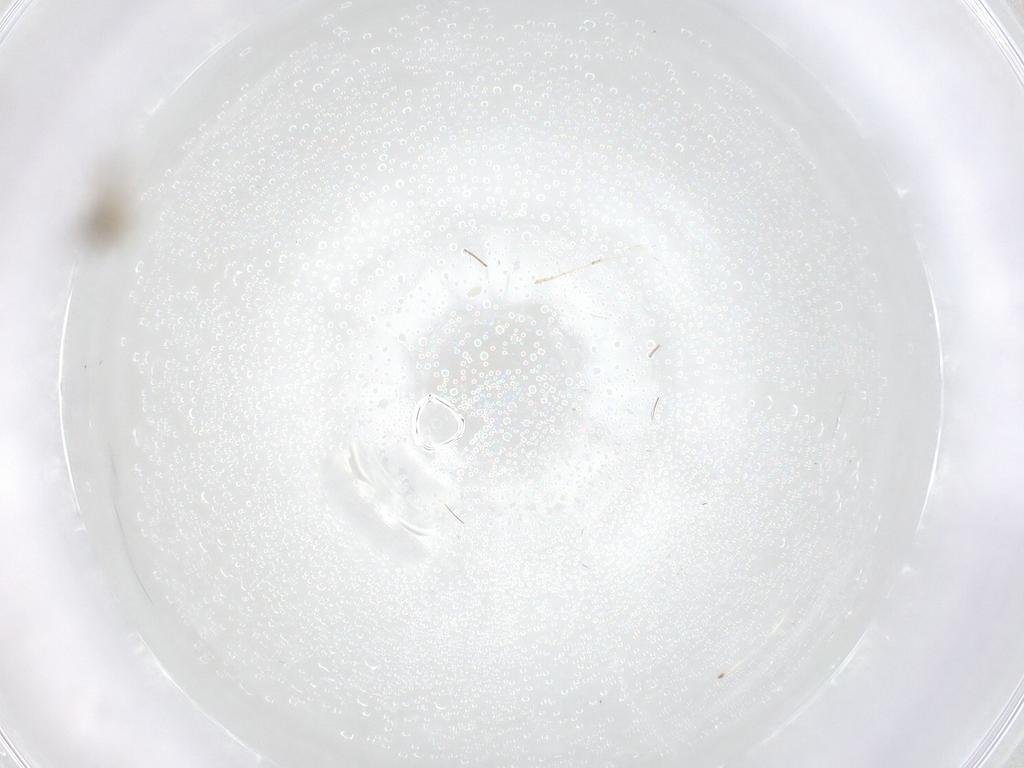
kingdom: Animalia
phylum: Arthropoda
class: Insecta
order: Diptera
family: Cecidomyiidae
